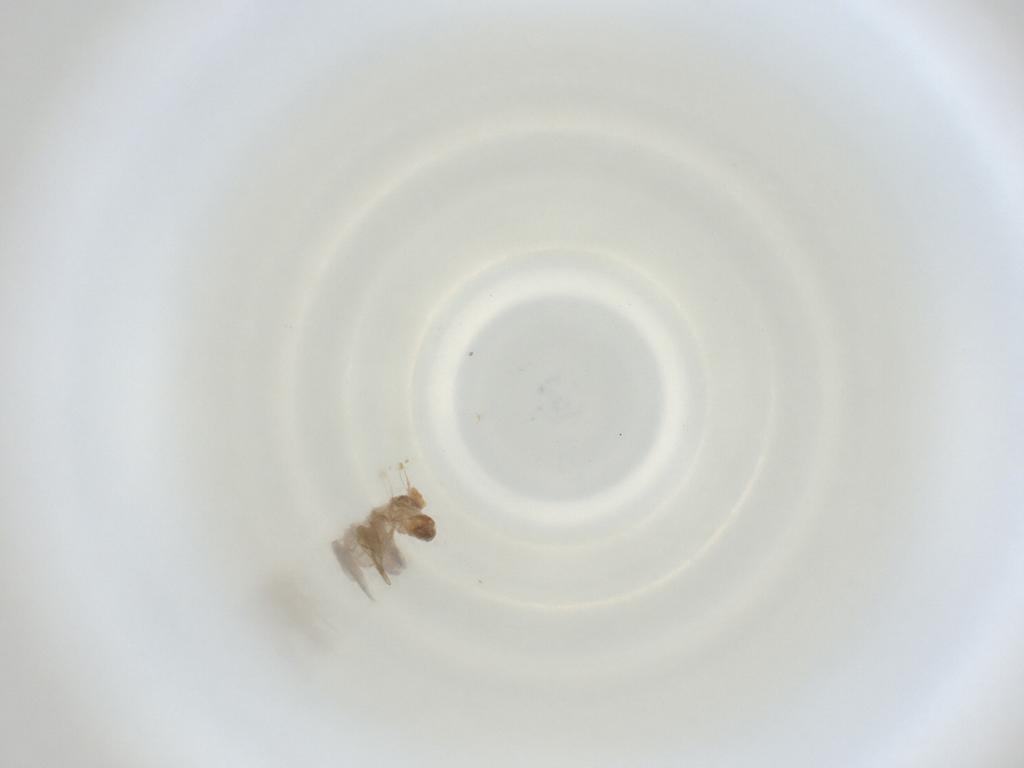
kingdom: Animalia
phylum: Arthropoda
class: Insecta
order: Diptera
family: Cecidomyiidae
